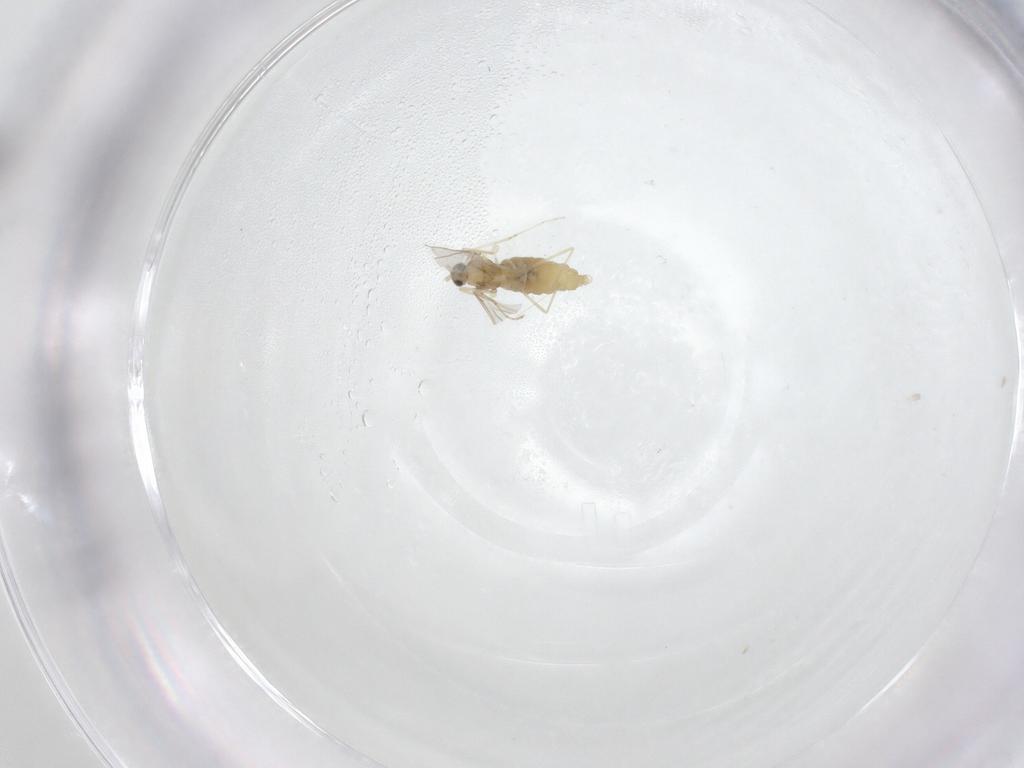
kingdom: Animalia
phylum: Arthropoda
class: Insecta
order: Diptera
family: Cecidomyiidae
